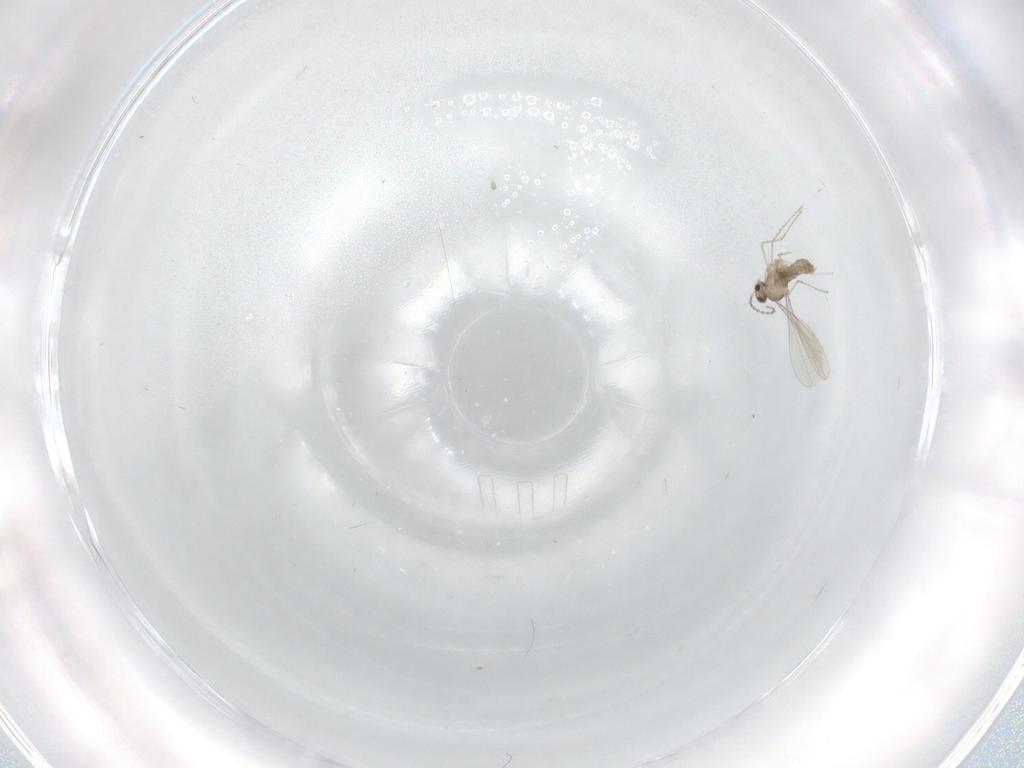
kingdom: Animalia
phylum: Arthropoda
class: Insecta
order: Diptera
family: Cecidomyiidae
